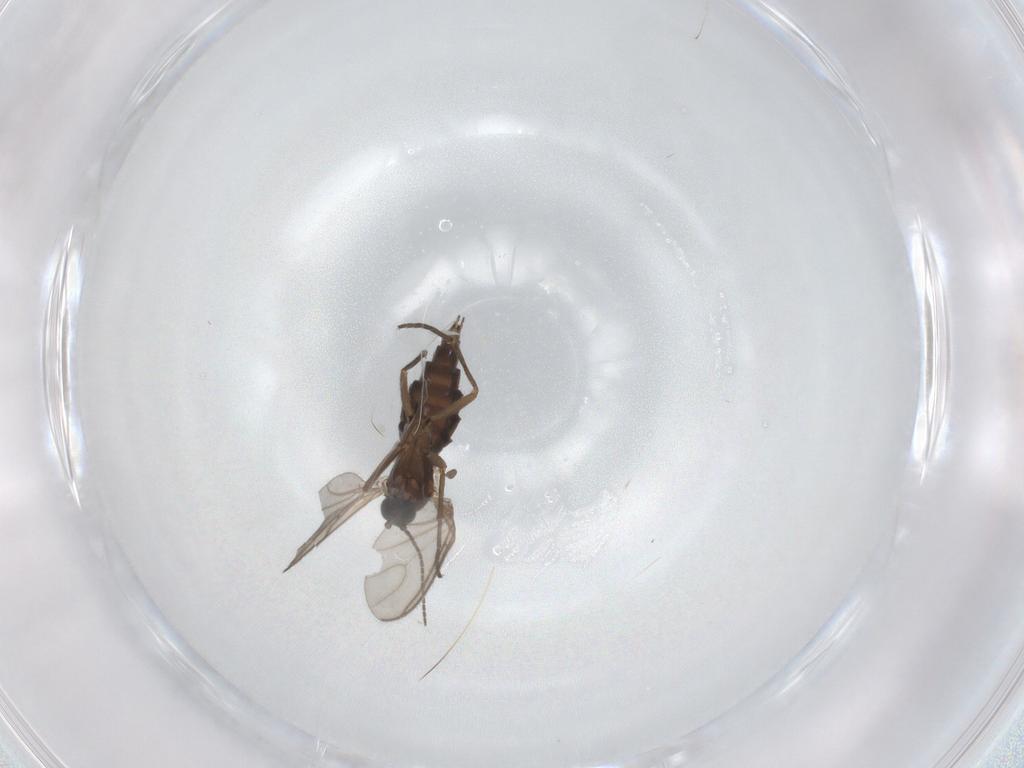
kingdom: Animalia
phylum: Arthropoda
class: Insecta
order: Diptera
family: Sciaridae
